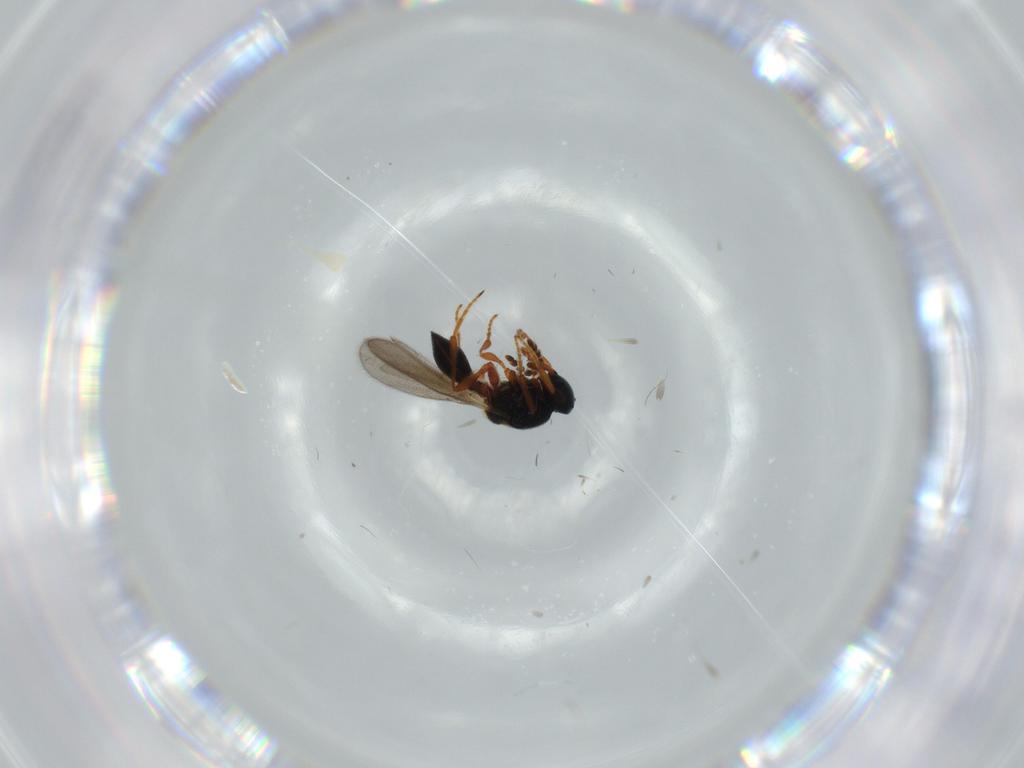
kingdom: Animalia
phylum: Arthropoda
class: Insecta
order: Hymenoptera
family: Platygastridae
